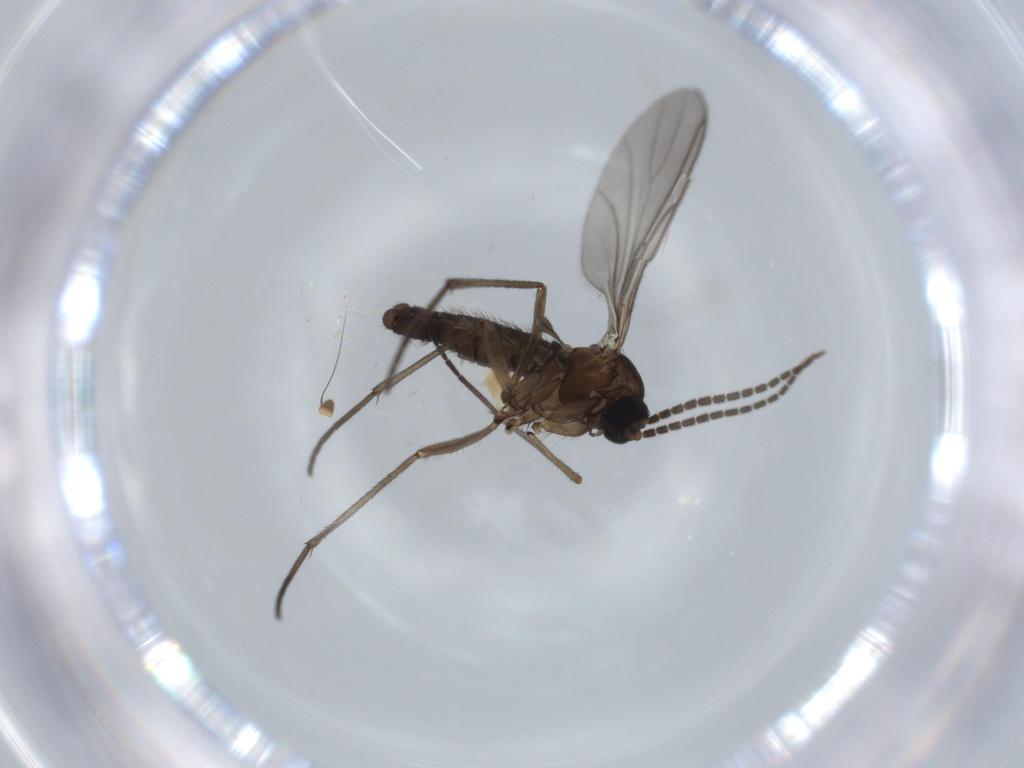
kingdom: Animalia
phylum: Arthropoda
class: Insecta
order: Diptera
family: Sciaridae
